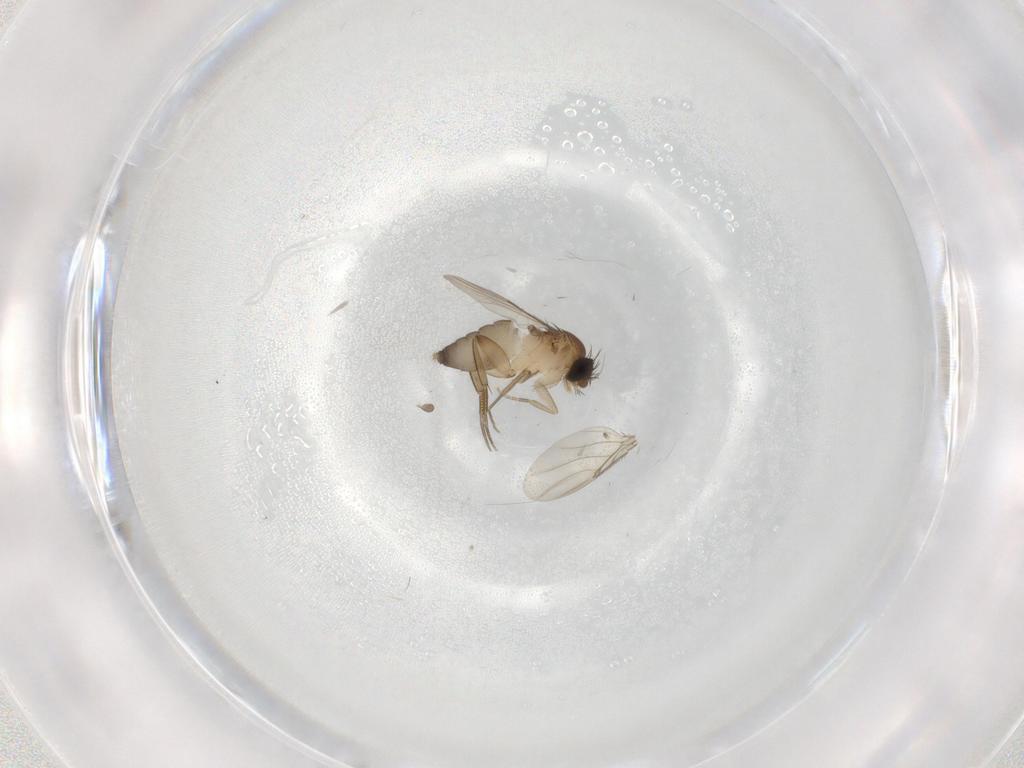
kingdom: Animalia
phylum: Arthropoda
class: Insecta
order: Diptera
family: Phoridae
